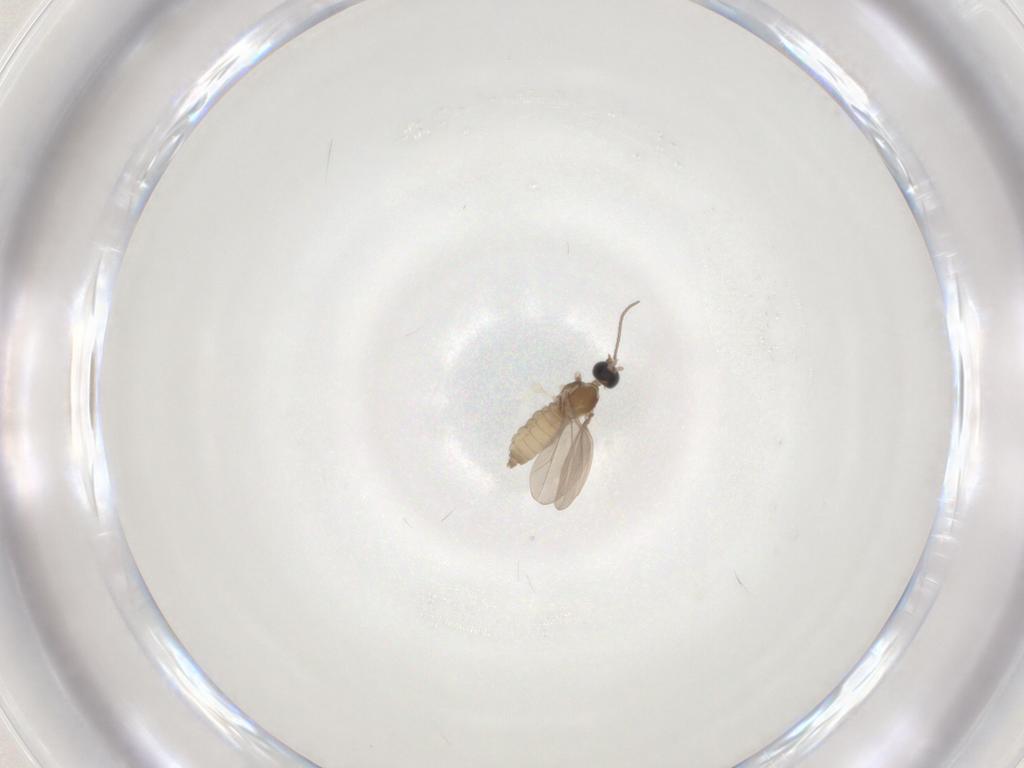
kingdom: Animalia
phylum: Arthropoda
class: Insecta
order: Diptera
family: Cecidomyiidae
